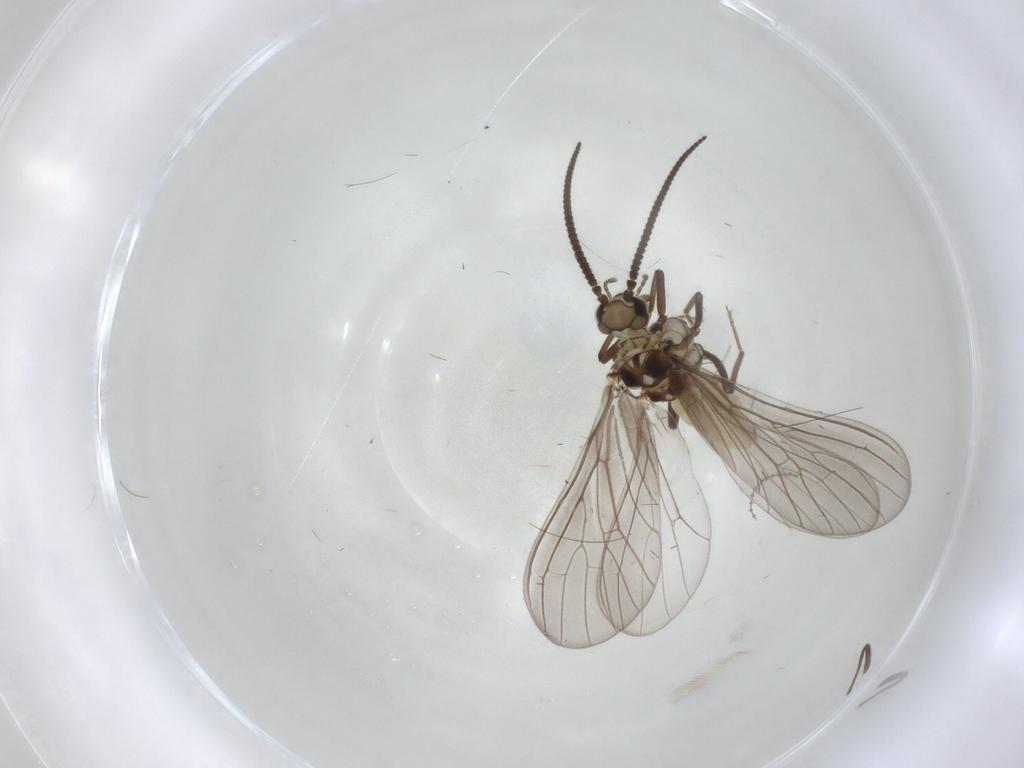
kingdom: Animalia
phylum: Arthropoda
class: Insecta
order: Neuroptera
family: Coniopterygidae
